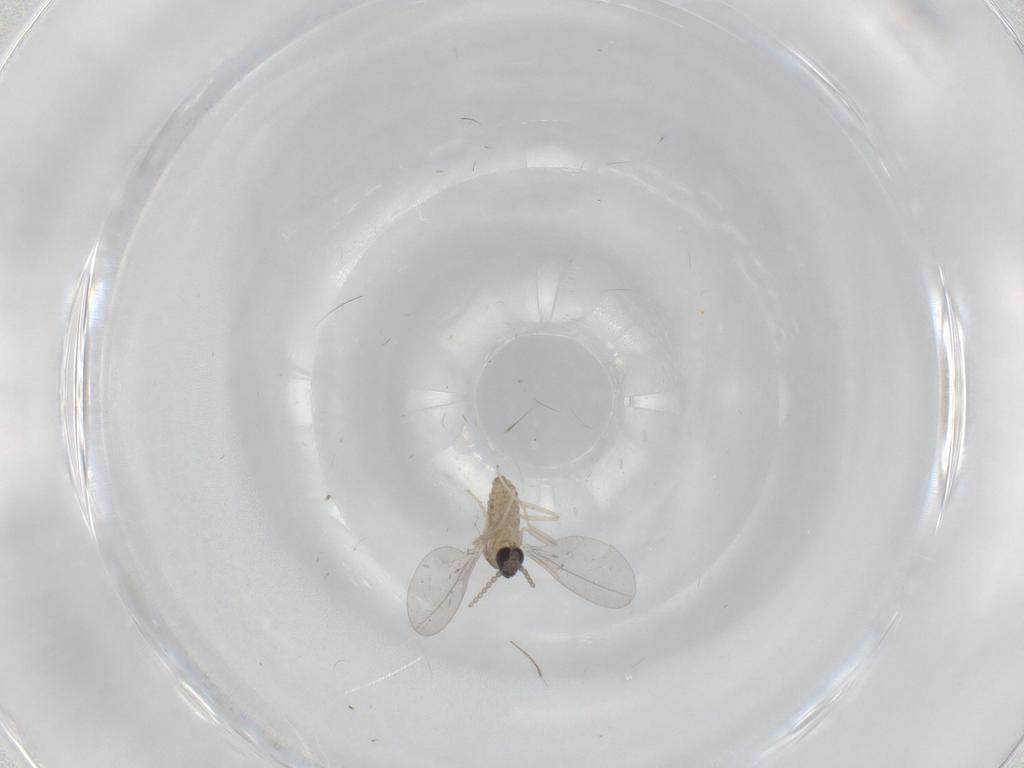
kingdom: Animalia
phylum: Arthropoda
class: Insecta
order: Diptera
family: Chironomidae
